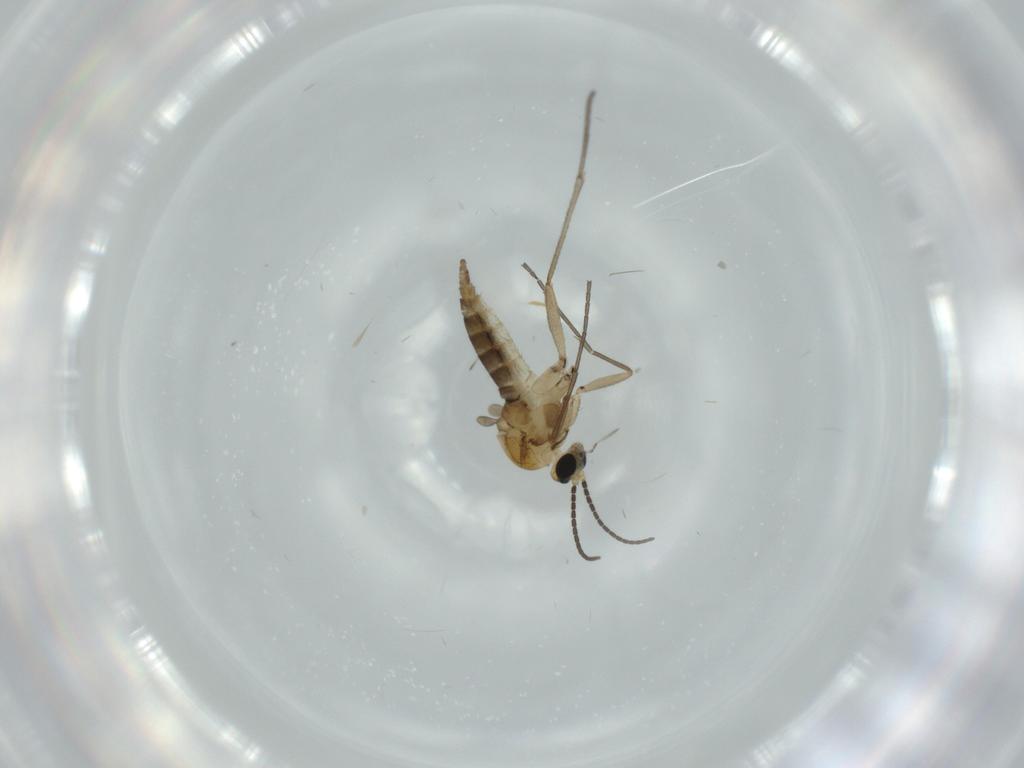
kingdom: Animalia
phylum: Arthropoda
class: Insecta
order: Diptera
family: Sciaridae
